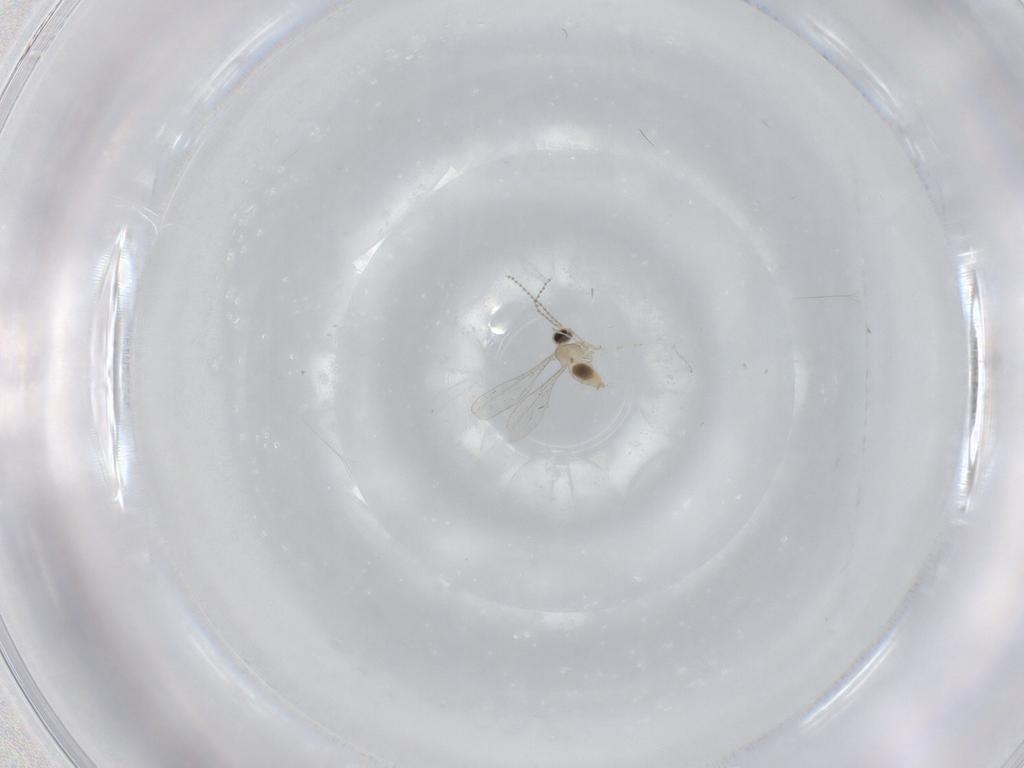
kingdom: Animalia
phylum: Arthropoda
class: Insecta
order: Diptera
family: Cecidomyiidae
